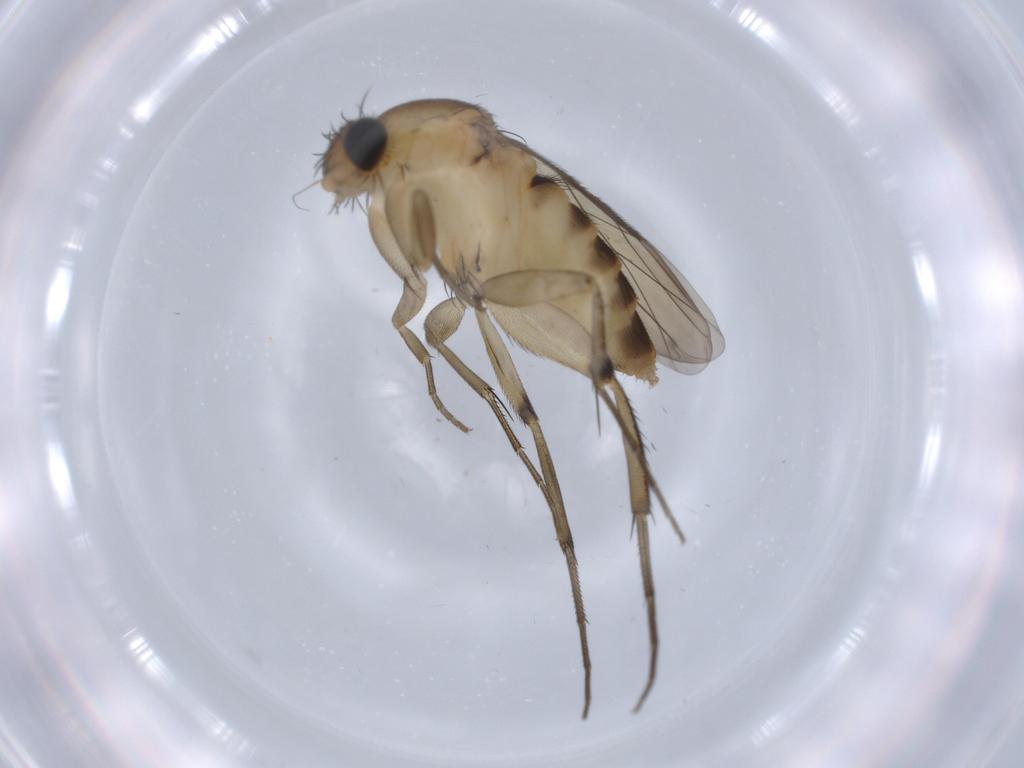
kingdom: Animalia
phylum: Arthropoda
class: Insecta
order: Diptera
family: Phoridae
